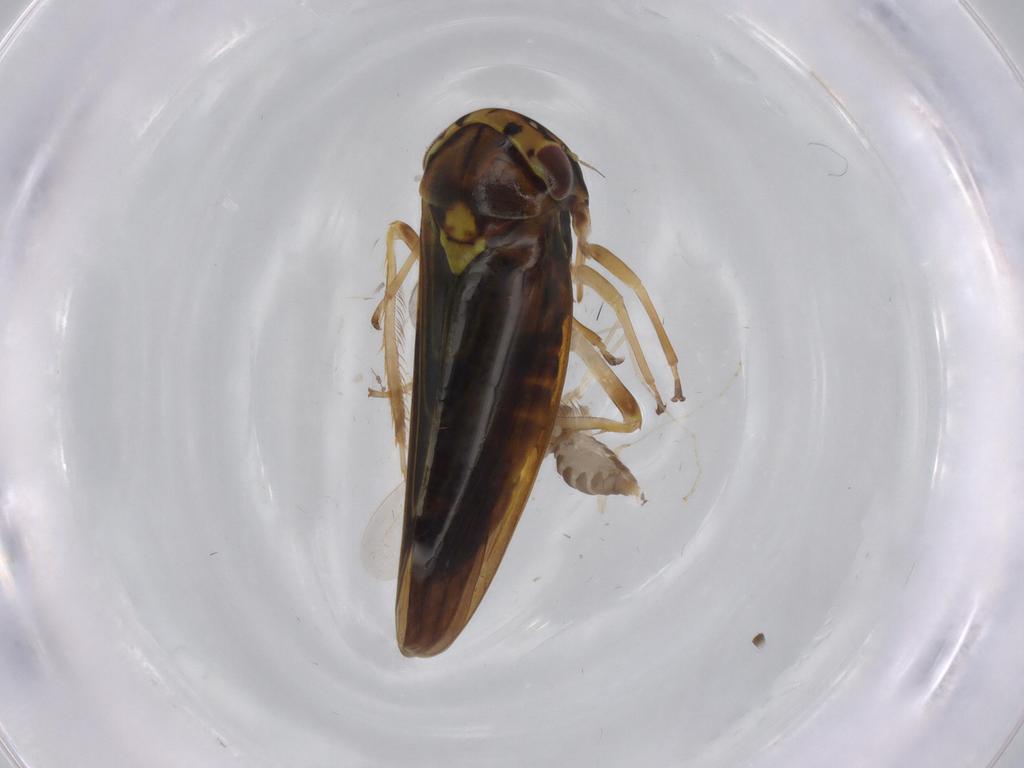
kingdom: Animalia
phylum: Arthropoda
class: Insecta
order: Hemiptera
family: Cicadellidae
